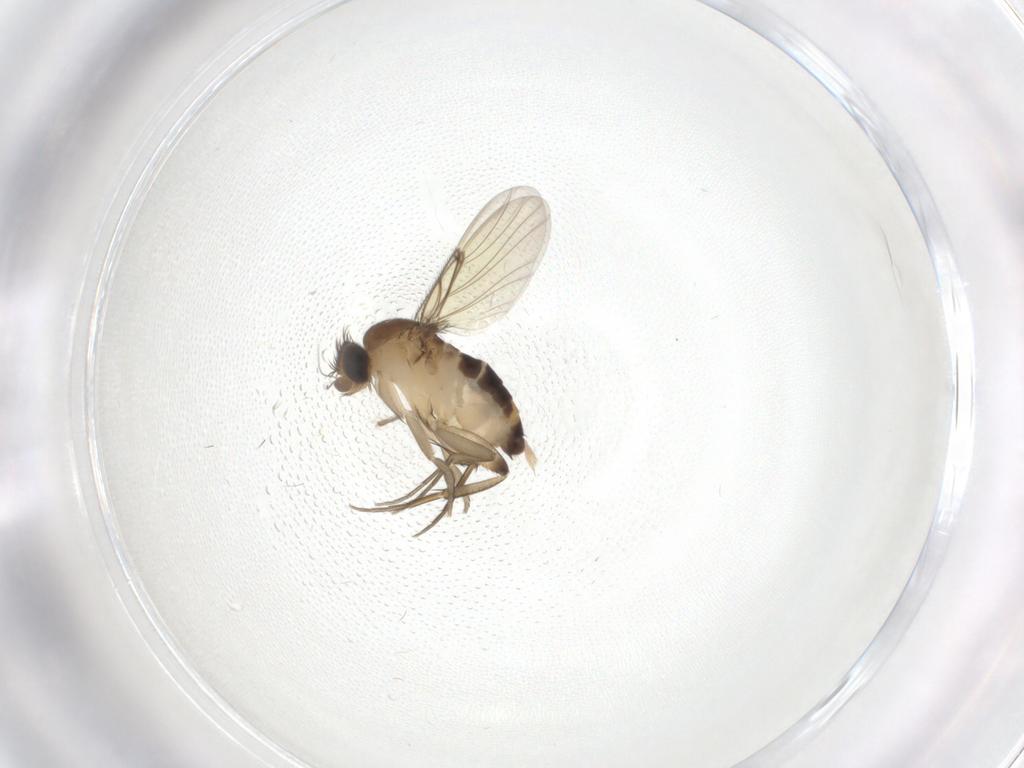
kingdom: Animalia
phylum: Arthropoda
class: Insecta
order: Diptera
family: Phoridae
